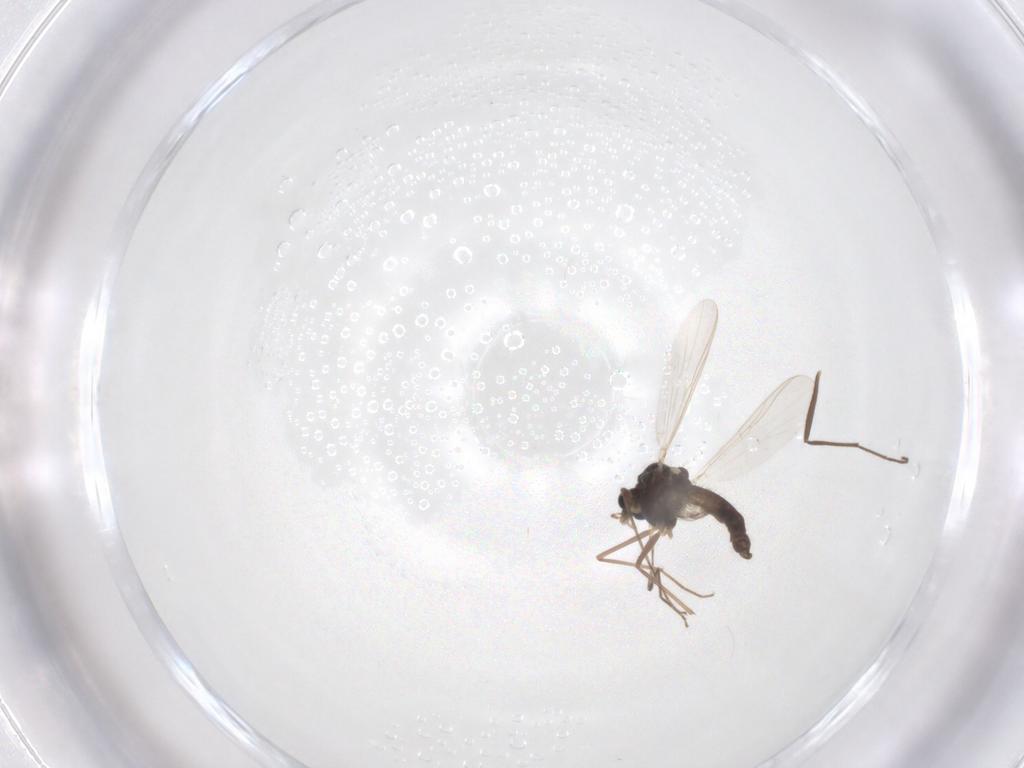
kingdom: Animalia
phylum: Arthropoda
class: Insecta
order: Diptera
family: Chironomidae
